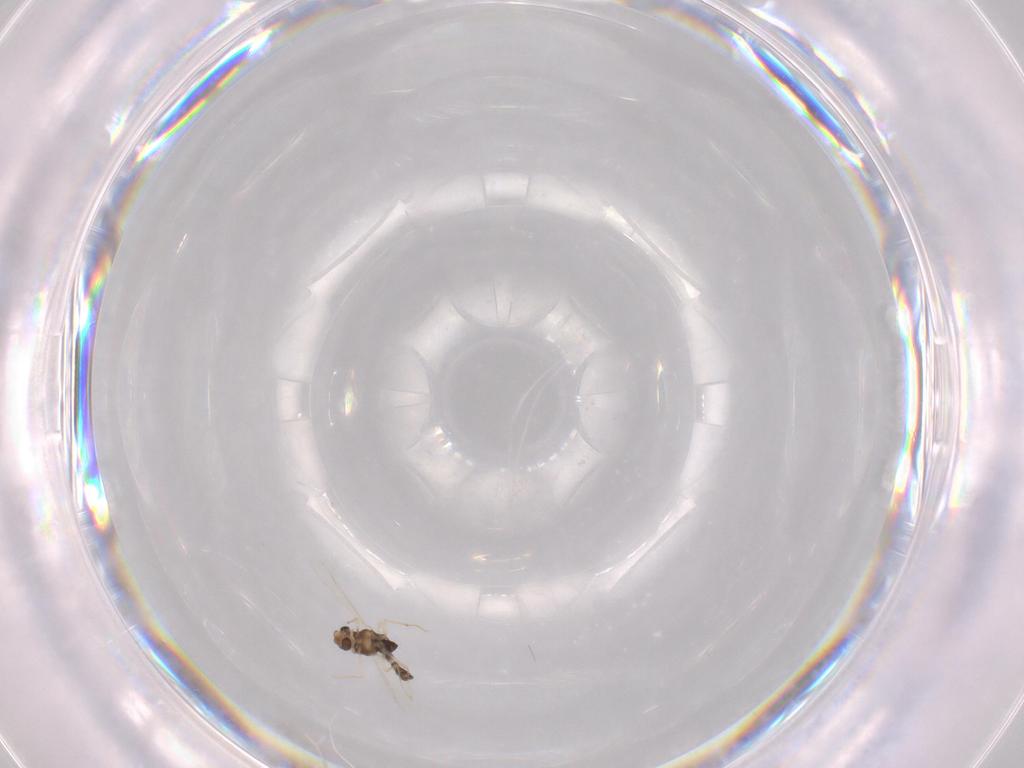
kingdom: Animalia
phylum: Arthropoda
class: Insecta
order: Diptera
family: Chironomidae
